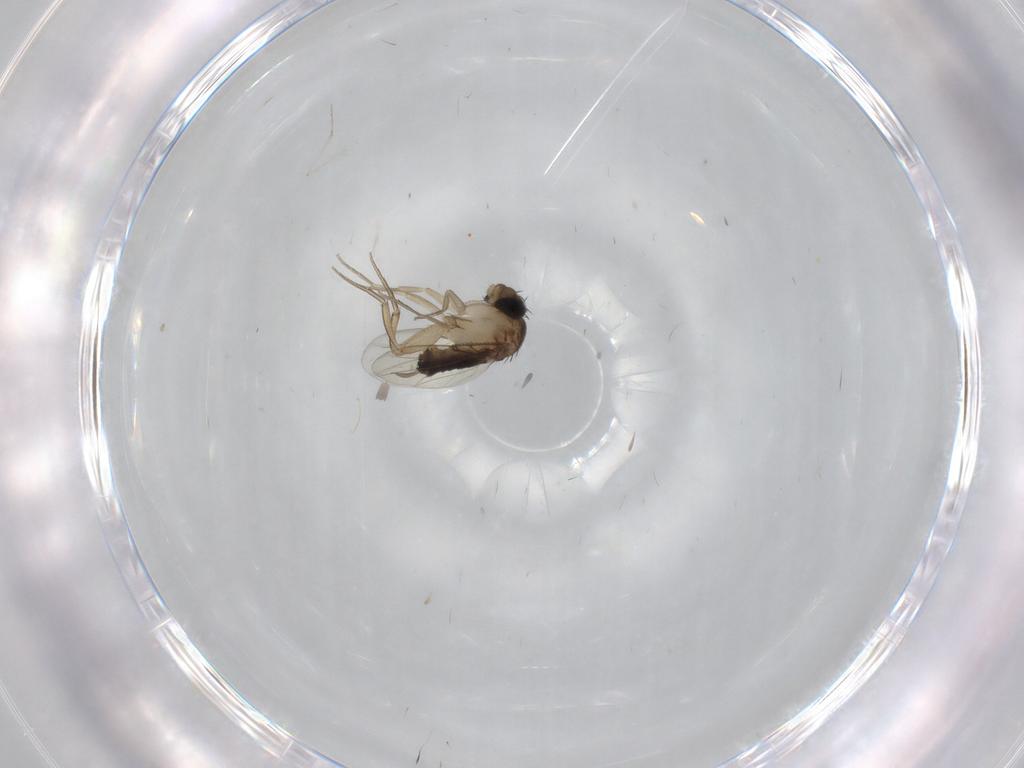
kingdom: Animalia
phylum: Arthropoda
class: Insecta
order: Diptera
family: Cecidomyiidae
